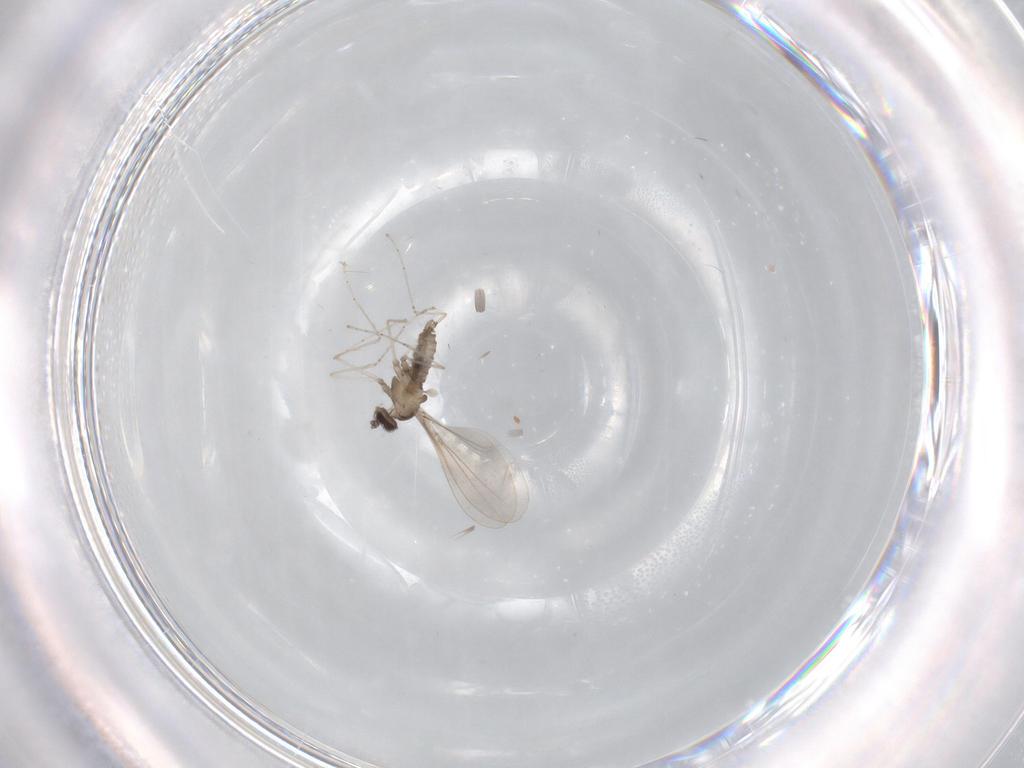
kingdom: Animalia
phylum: Arthropoda
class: Insecta
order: Diptera
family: Cecidomyiidae
